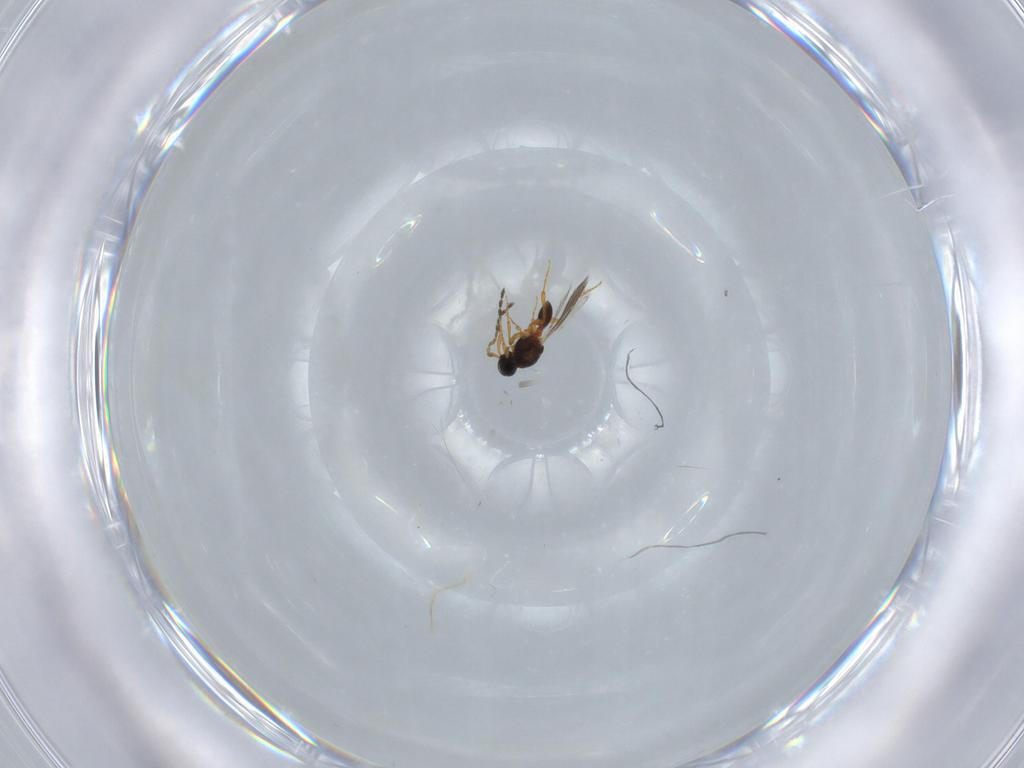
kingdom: Animalia
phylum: Arthropoda
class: Insecta
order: Hymenoptera
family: Platygastridae
